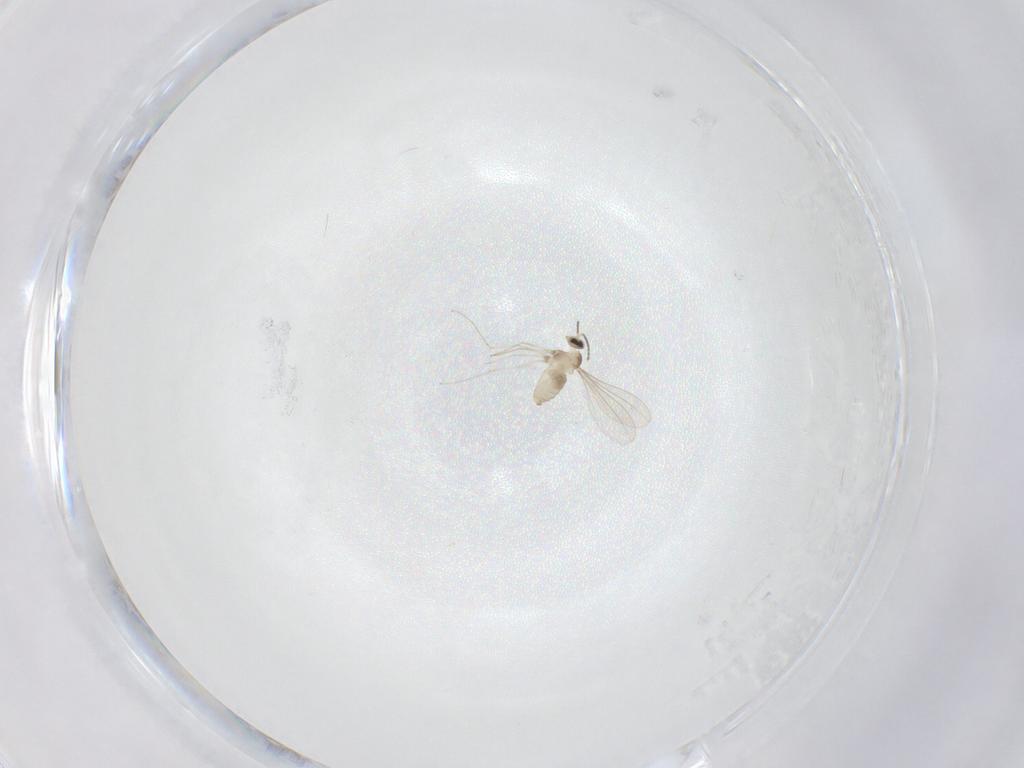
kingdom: Animalia
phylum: Arthropoda
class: Insecta
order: Diptera
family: Cecidomyiidae
